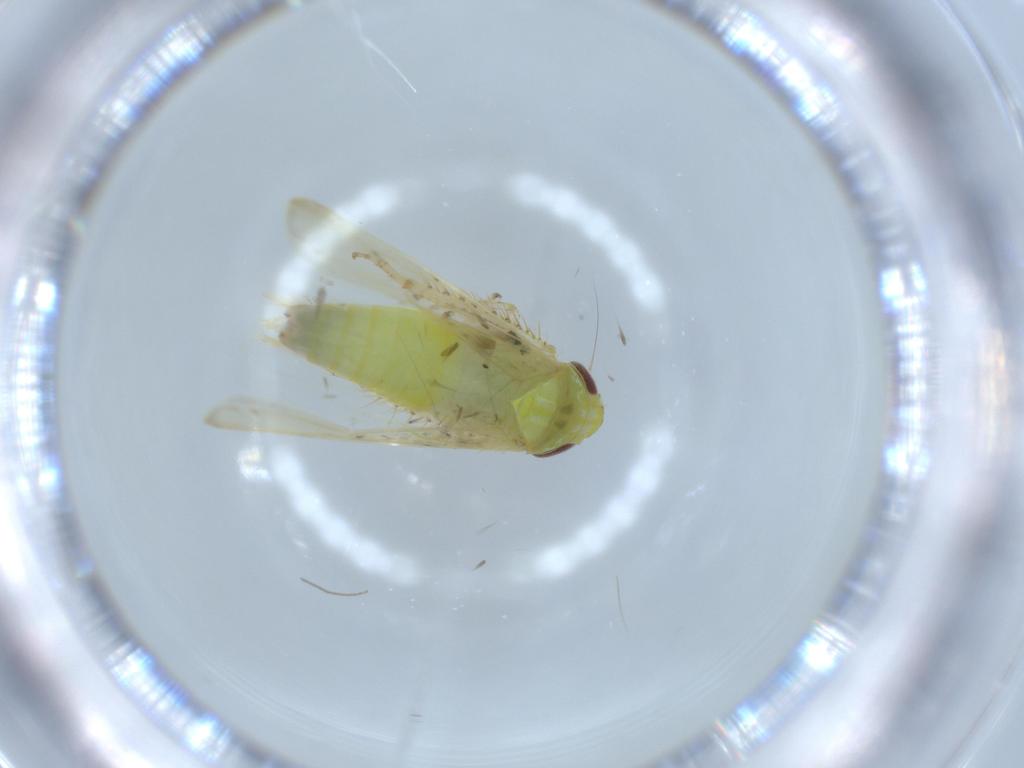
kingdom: Animalia
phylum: Arthropoda
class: Insecta
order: Hemiptera
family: Cicadellidae
